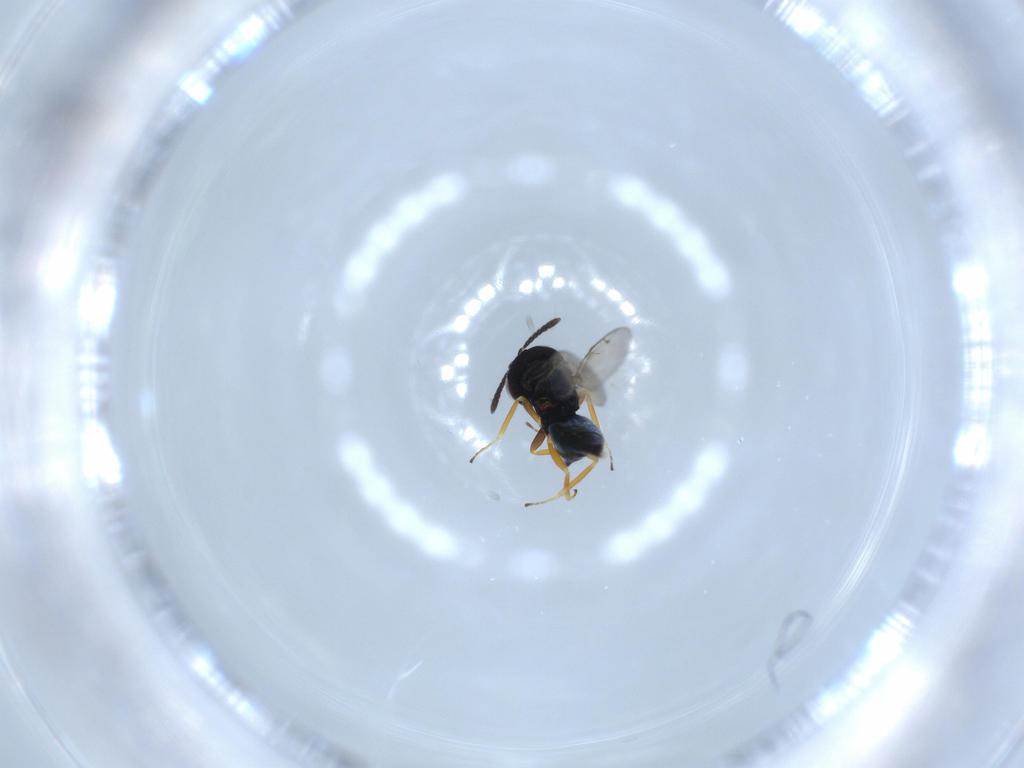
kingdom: Animalia
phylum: Arthropoda
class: Insecta
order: Hymenoptera
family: Bethylidae
